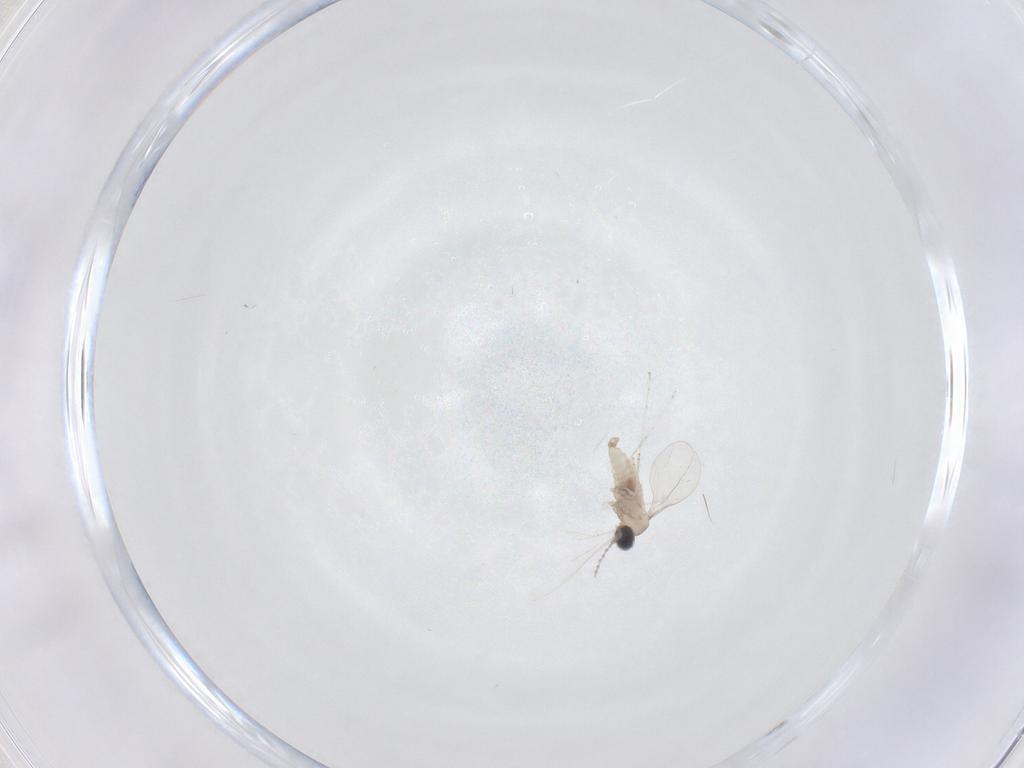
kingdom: Animalia
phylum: Arthropoda
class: Insecta
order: Diptera
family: Cecidomyiidae
